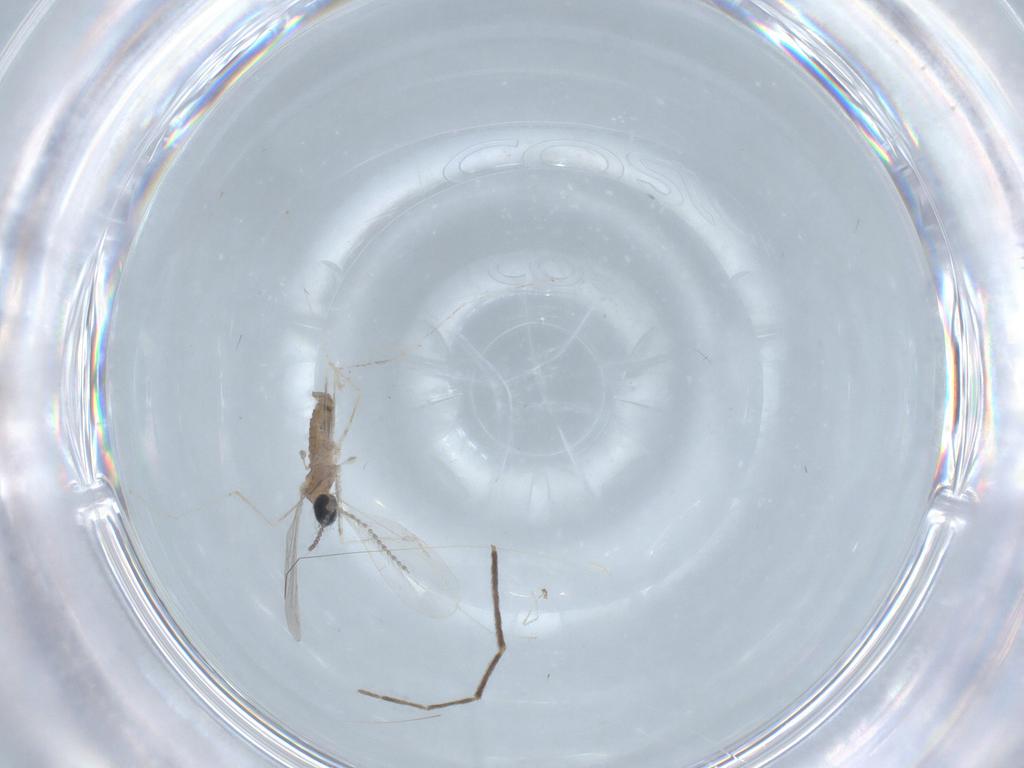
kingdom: Animalia
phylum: Arthropoda
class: Insecta
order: Diptera
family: Cecidomyiidae
